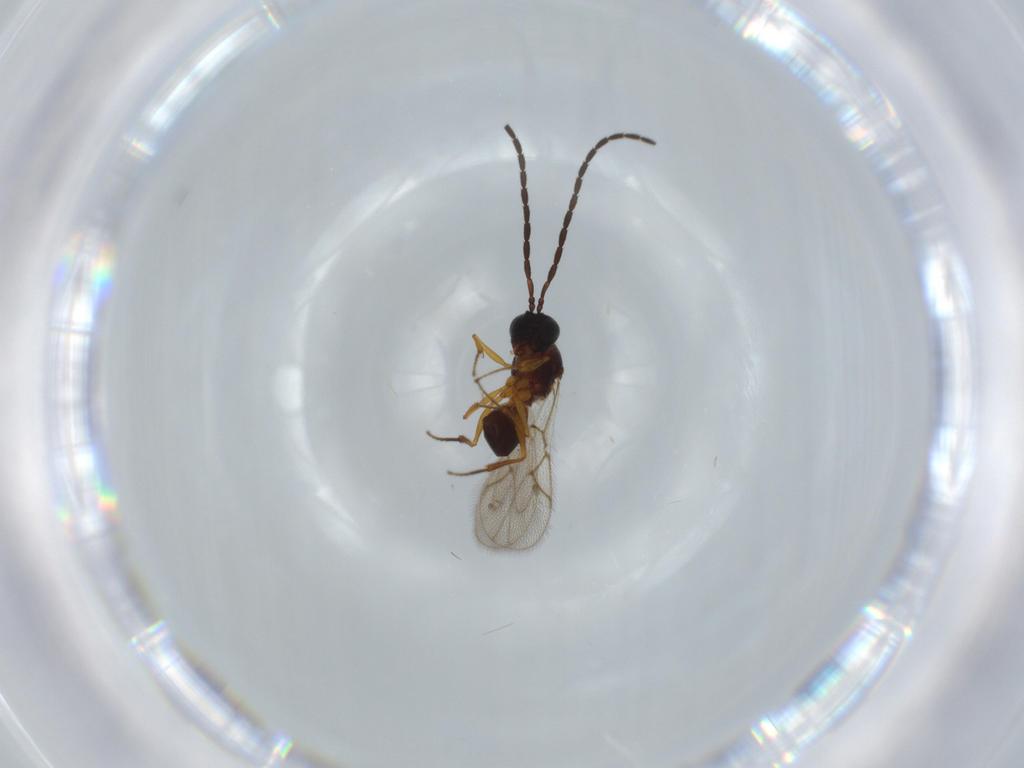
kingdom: Animalia
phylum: Arthropoda
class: Insecta
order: Hymenoptera
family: Figitidae
